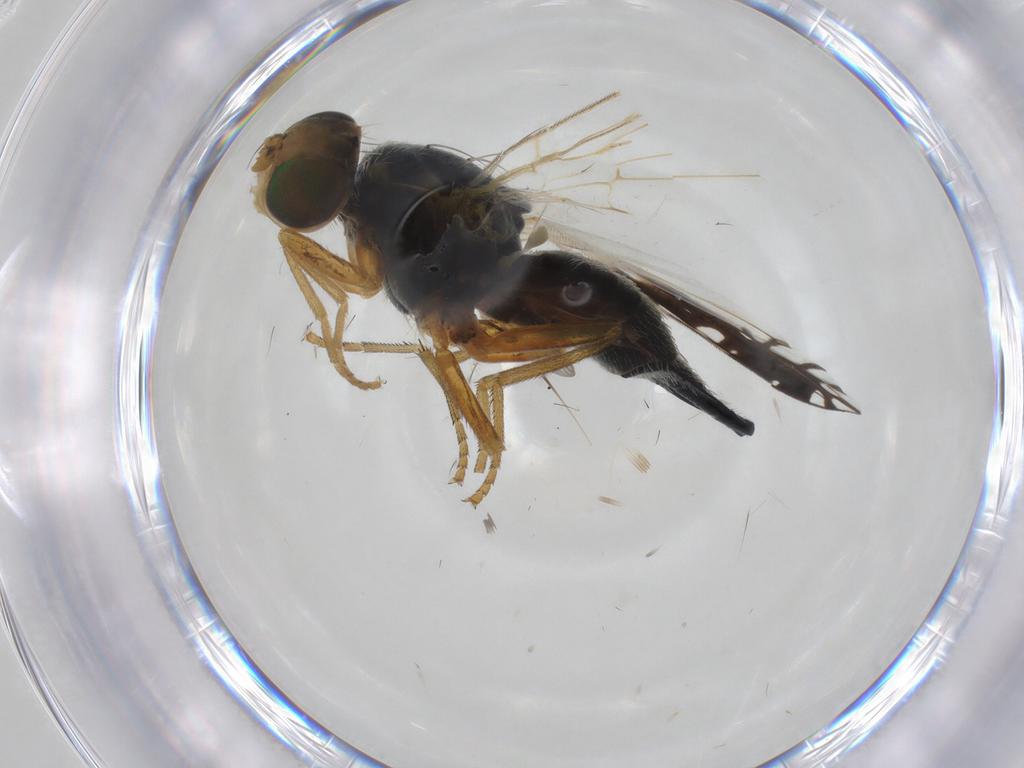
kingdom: Animalia
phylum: Arthropoda
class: Insecta
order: Diptera
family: Tephritidae
